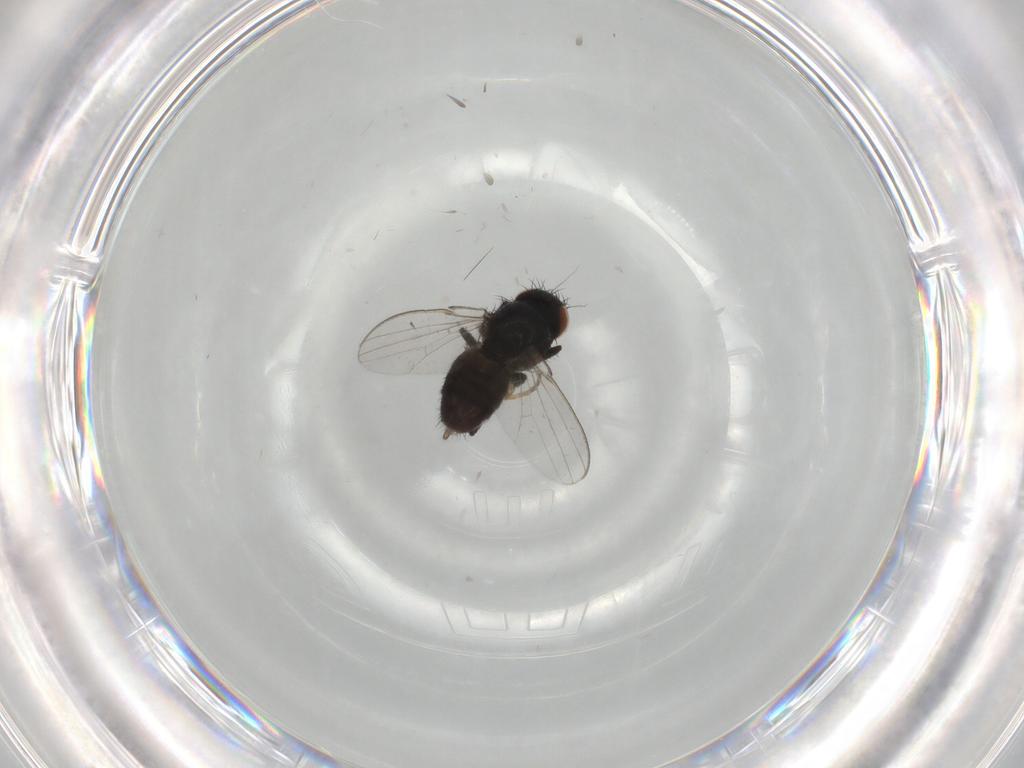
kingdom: Animalia
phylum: Arthropoda
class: Insecta
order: Diptera
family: Milichiidae
